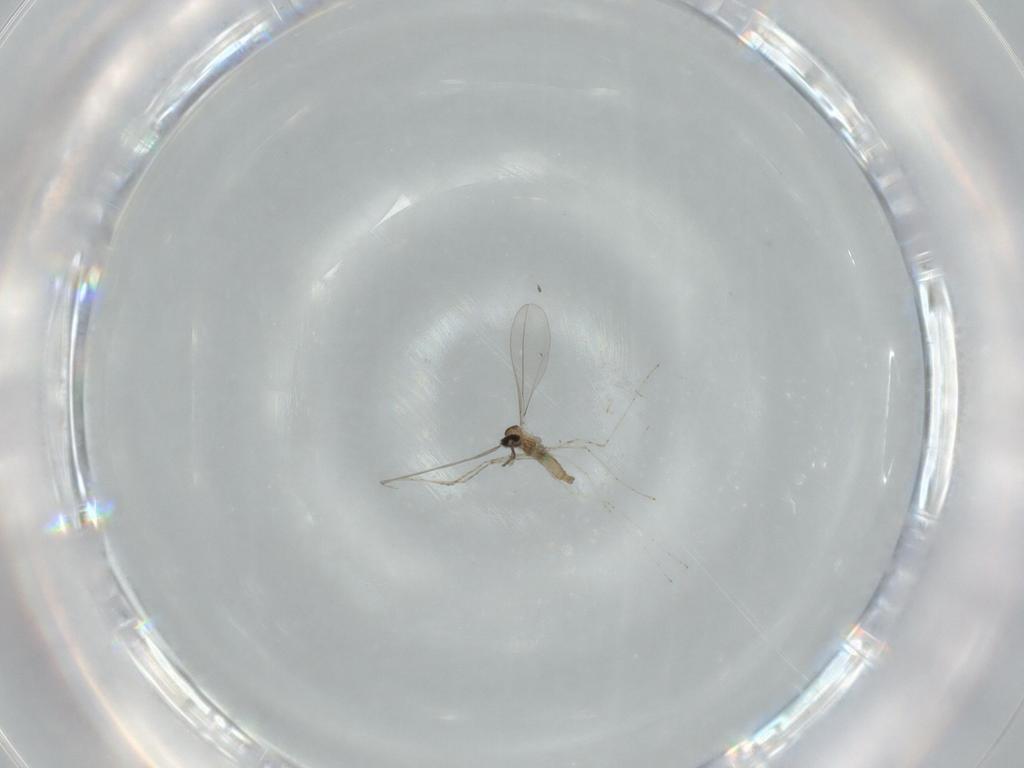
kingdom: Animalia
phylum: Arthropoda
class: Insecta
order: Diptera
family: Cecidomyiidae
